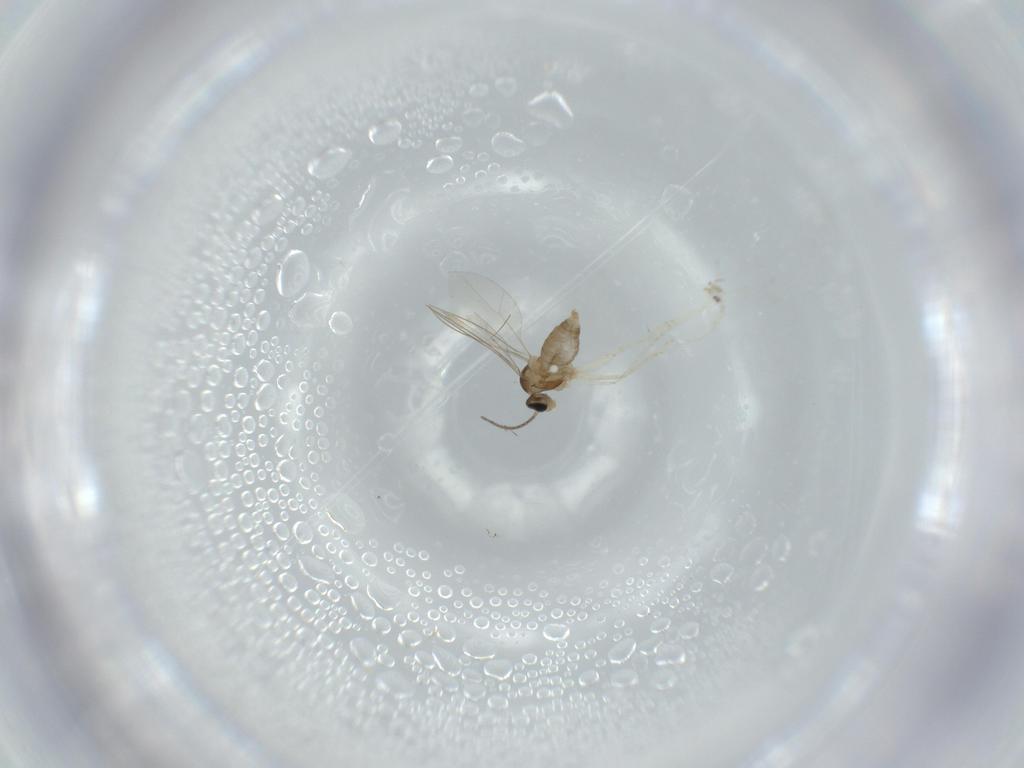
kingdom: Animalia
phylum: Arthropoda
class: Insecta
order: Diptera
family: Cecidomyiidae
